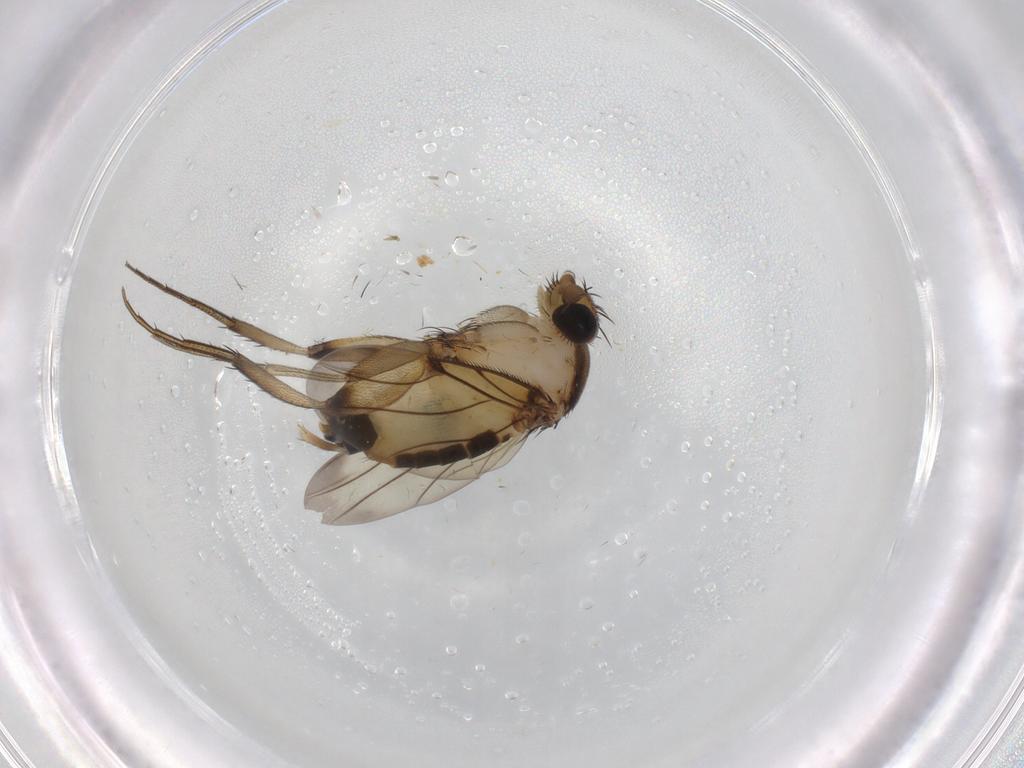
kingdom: Animalia
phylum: Arthropoda
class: Insecta
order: Diptera
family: Phoridae
